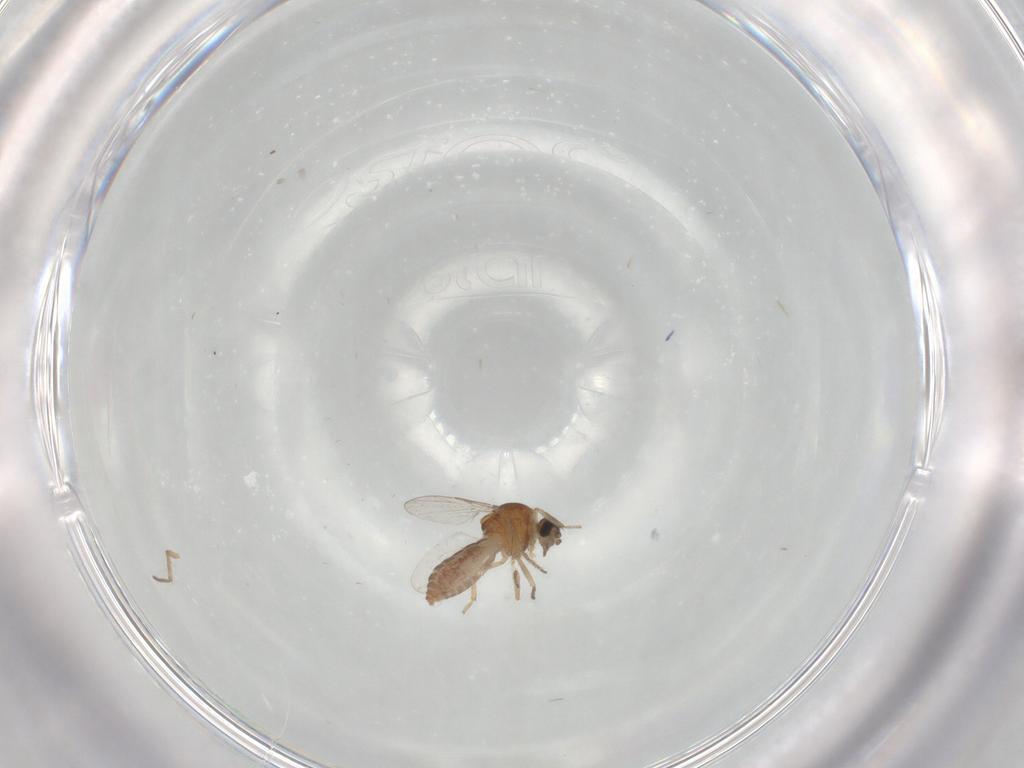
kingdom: Animalia
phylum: Arthropoda
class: Insecta
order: Diptera
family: Ceratopogonidae
